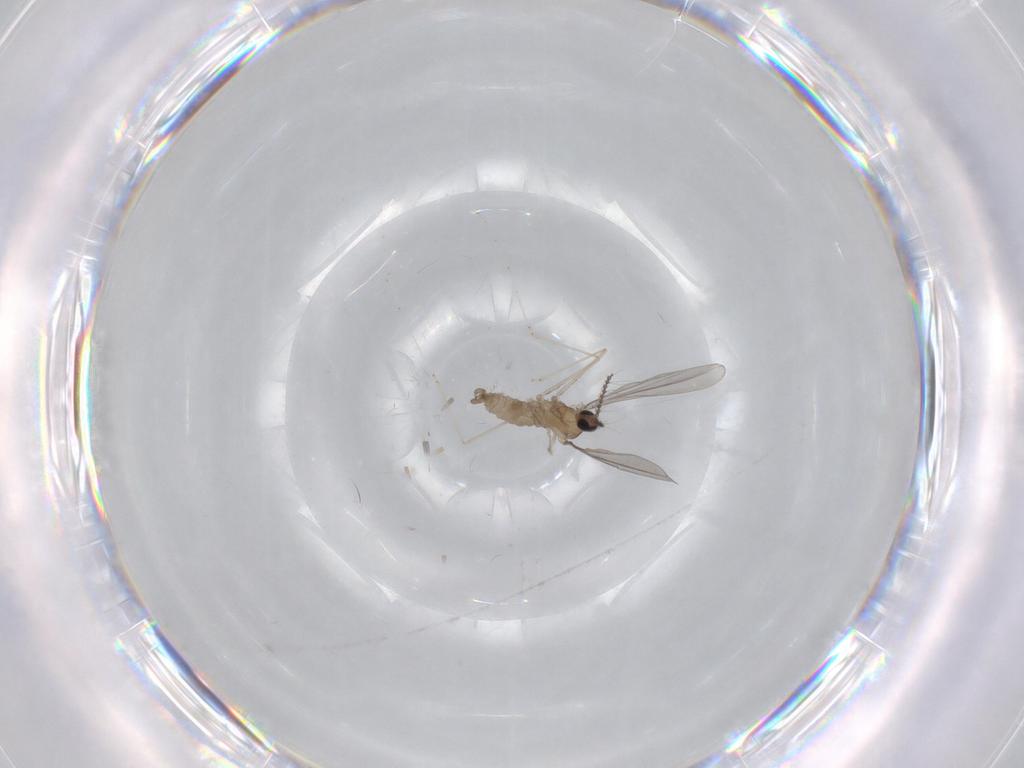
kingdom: Animalia
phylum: Arthropoda
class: Insecta
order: Diptera
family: Cecidomyiidae
